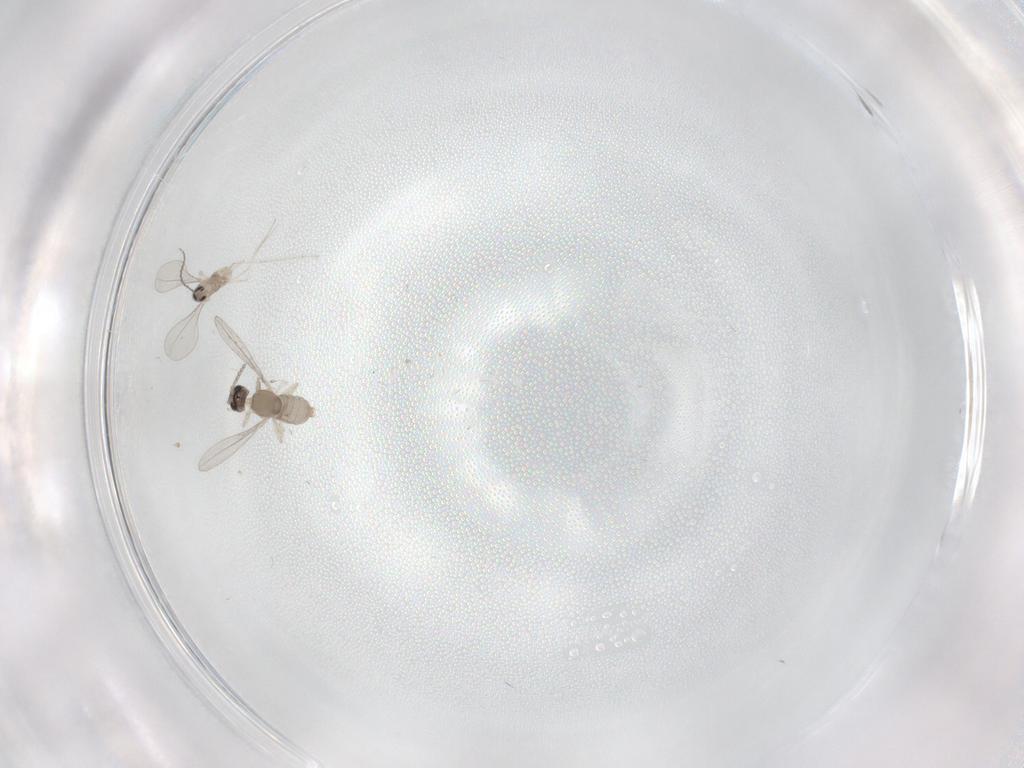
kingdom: Animalia
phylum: Arthropoda
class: Insecta
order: Diptera
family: Cecidomyiidae
